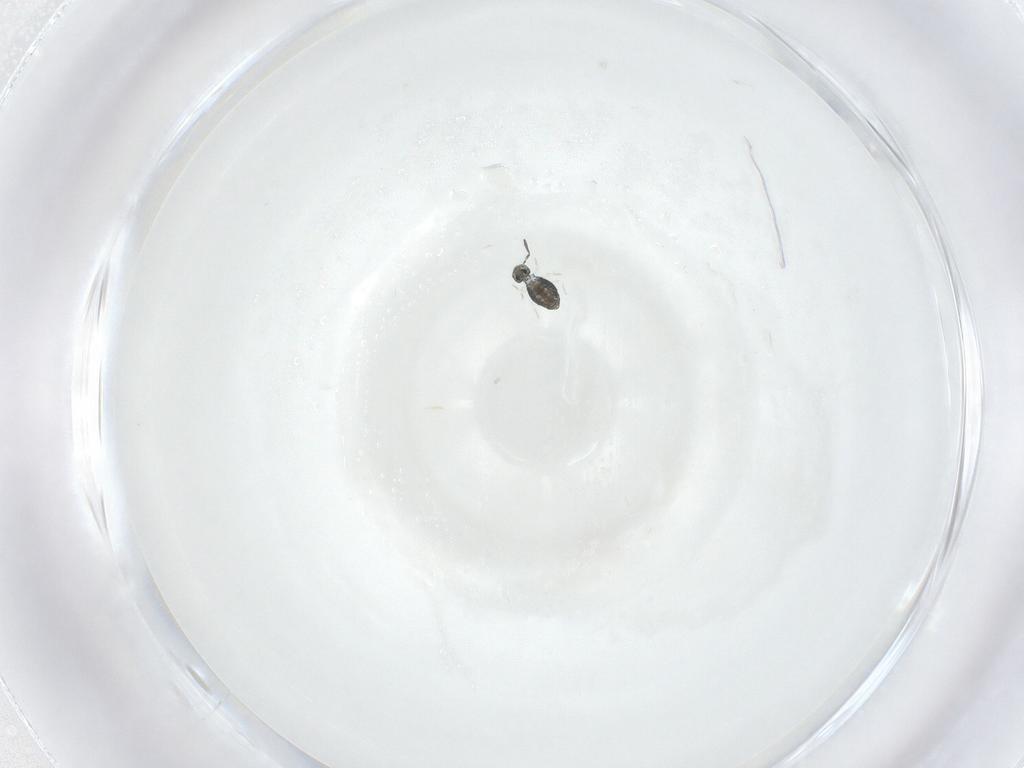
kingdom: Animalia
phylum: Arthropoda
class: Collembola
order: Symphypleona
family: Katiannidae
